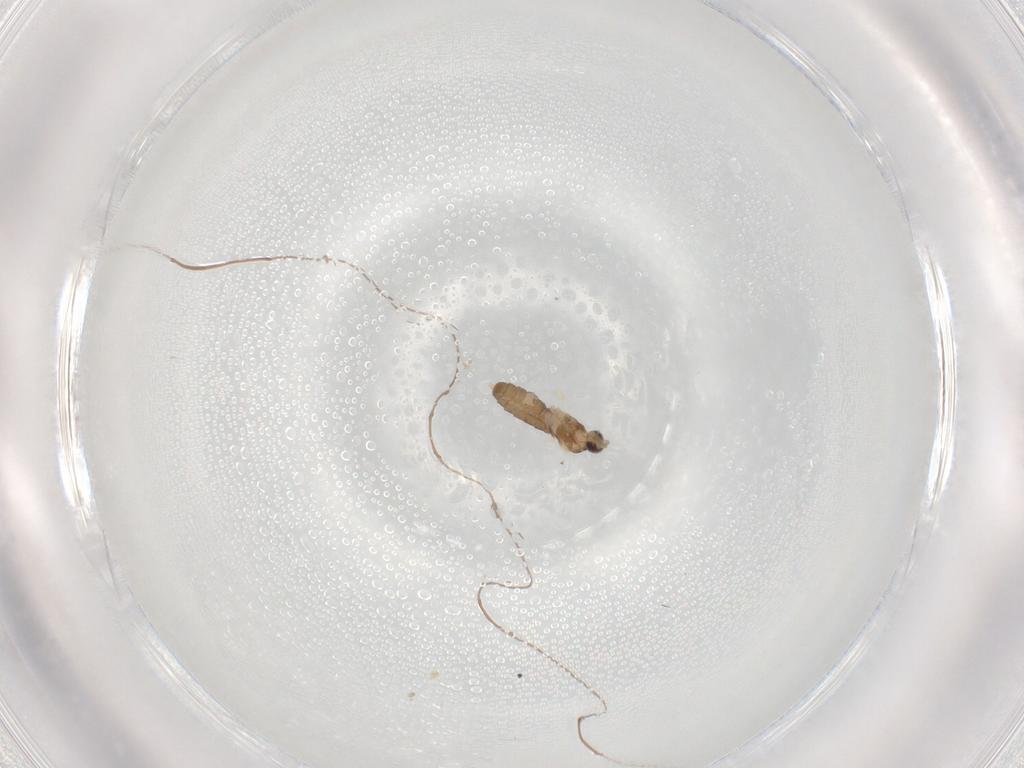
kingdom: Animalia
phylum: Arthropoda
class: Insecta
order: Diptera
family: Cecidomyiidae
